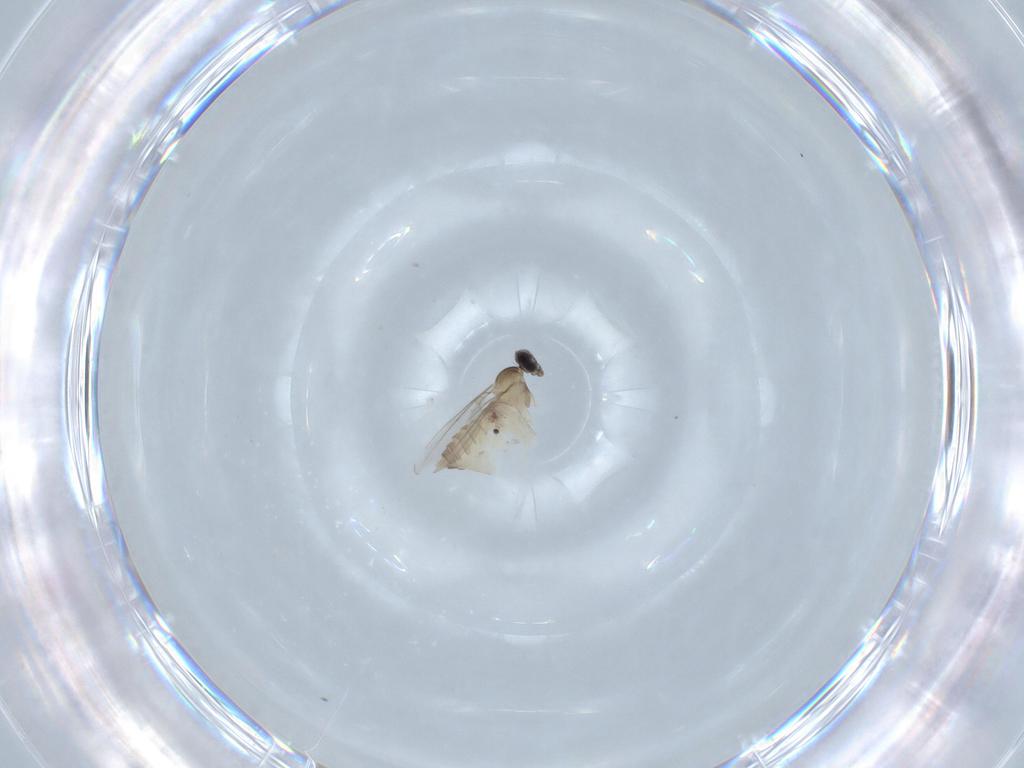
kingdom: Animalia
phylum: Arthropoda
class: Insecta
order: Diptera
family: Cecidomyiidae
